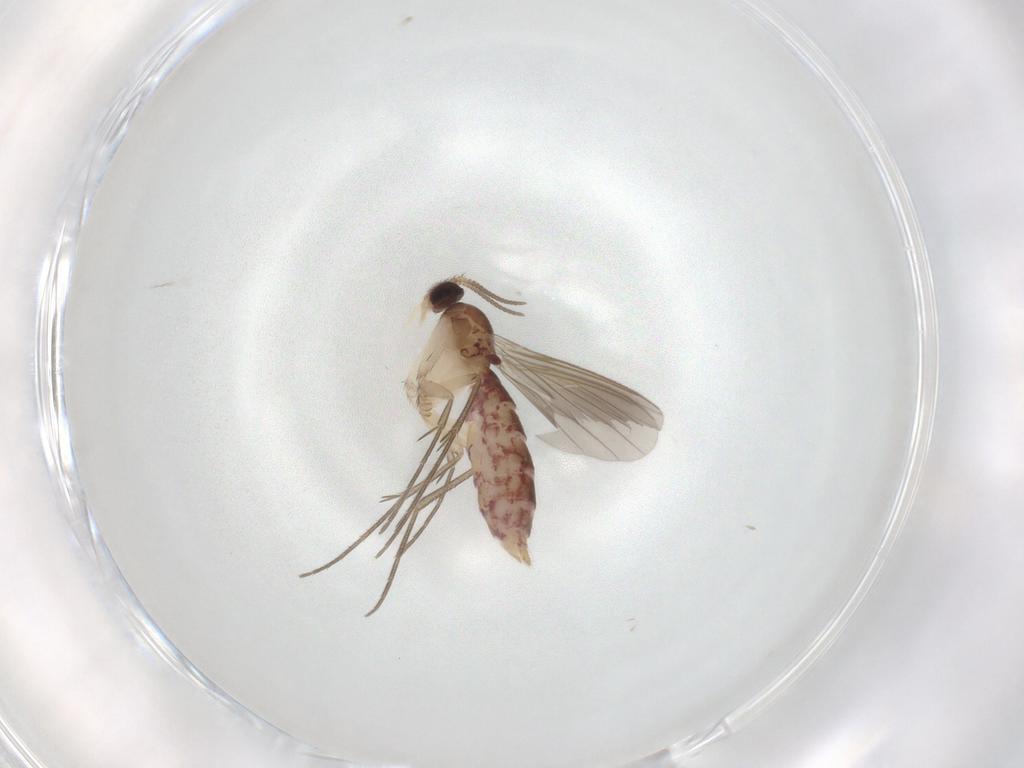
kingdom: Animalia
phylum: Arthropoda
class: Insecta
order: Diptera
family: Mycetophilidae
